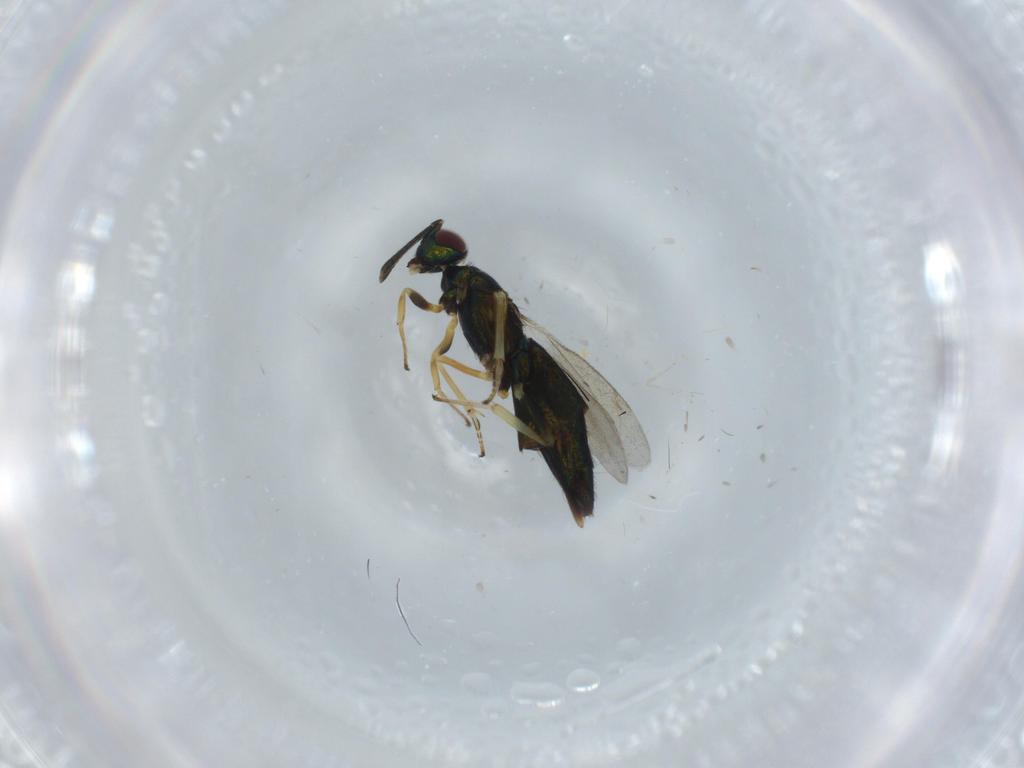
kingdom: Animalia
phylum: Arthropoda
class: Insecta
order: Hymenoptera
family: Eupelmidae
